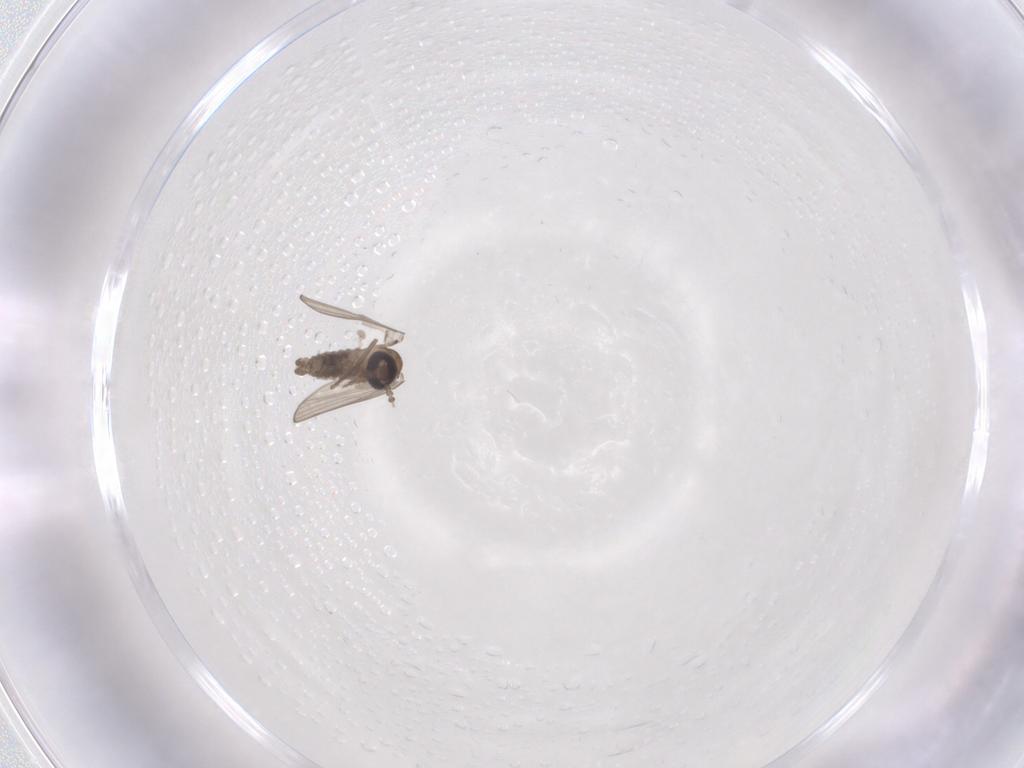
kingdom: Animalia
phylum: Arthropoda
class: Insecta
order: Diptera
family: Psychodidae
